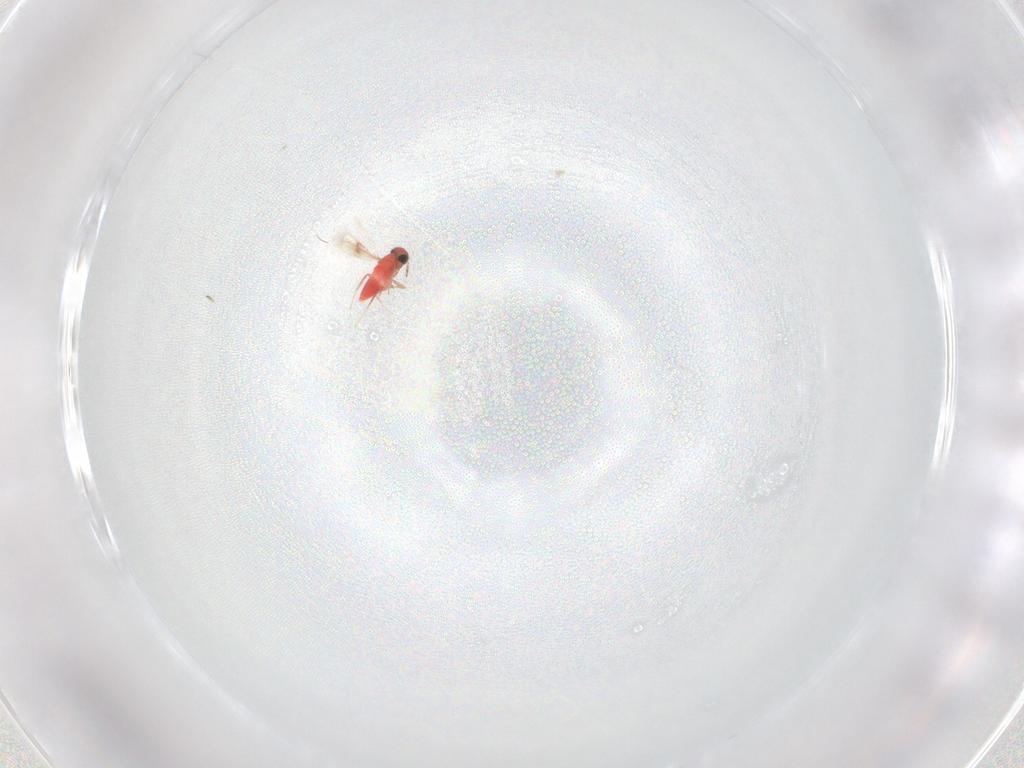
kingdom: Animalia
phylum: Arthropoda
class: Insecta
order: Hymenoptera
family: Trichogrammatidae
